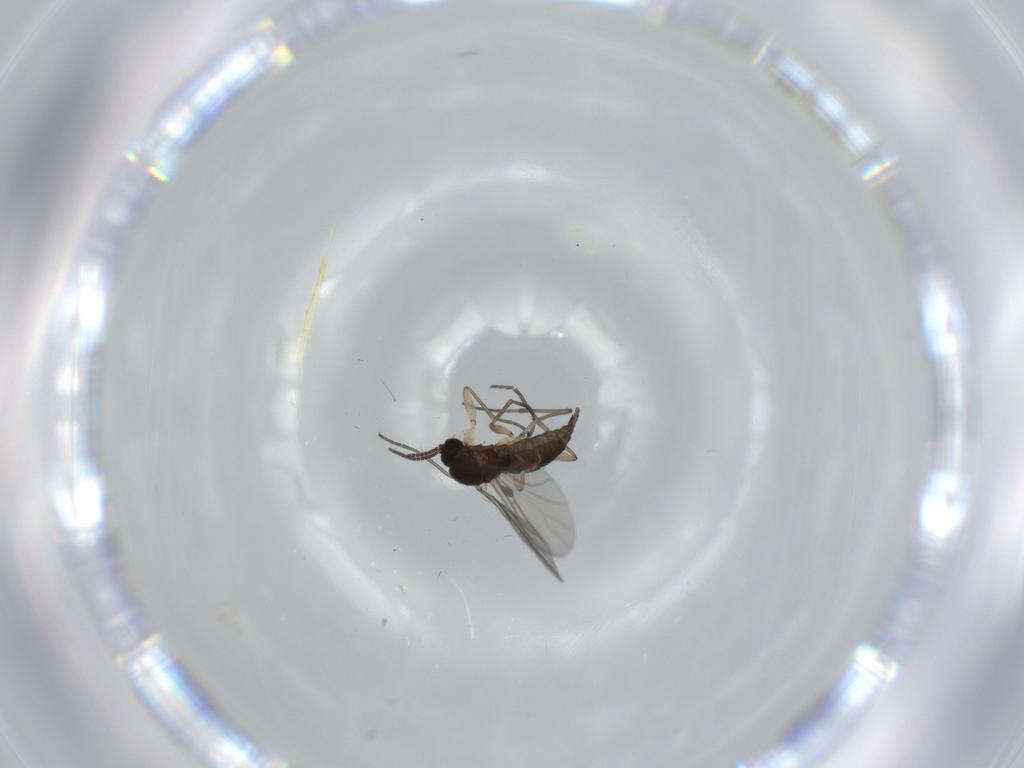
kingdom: Animalia
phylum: Arthropoda
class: Insecta
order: Diptera
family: Sciaridae
